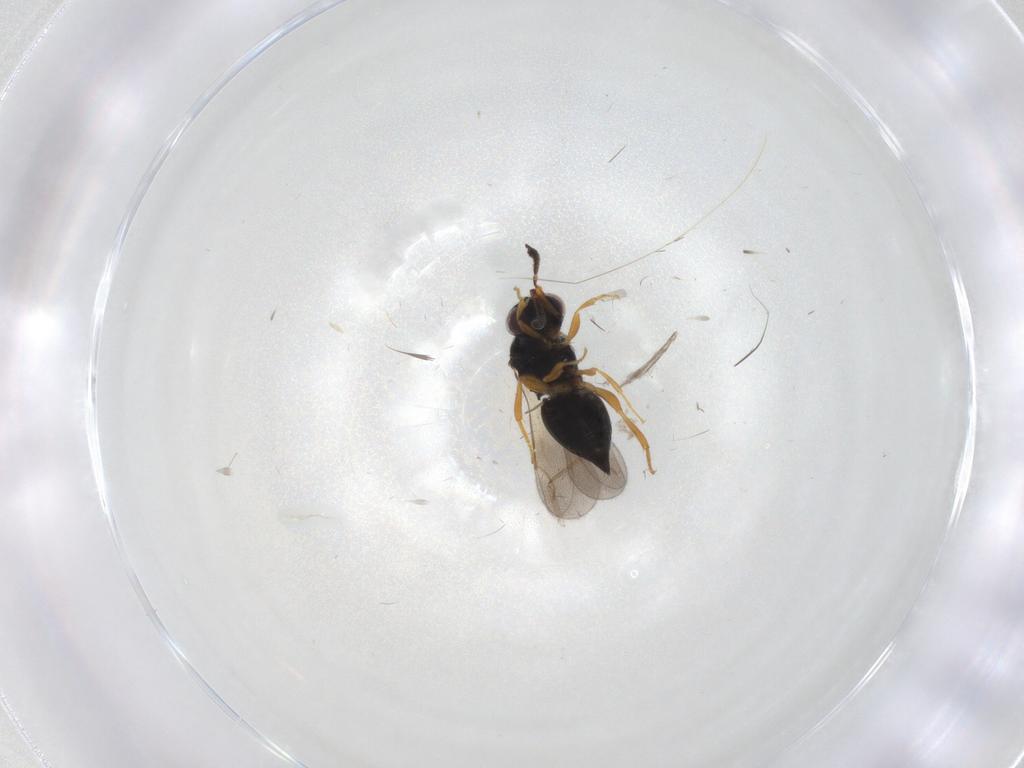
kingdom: Animalia
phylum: Arthropoda
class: Insecta
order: Hymenoptera
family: Ceraphronidae
